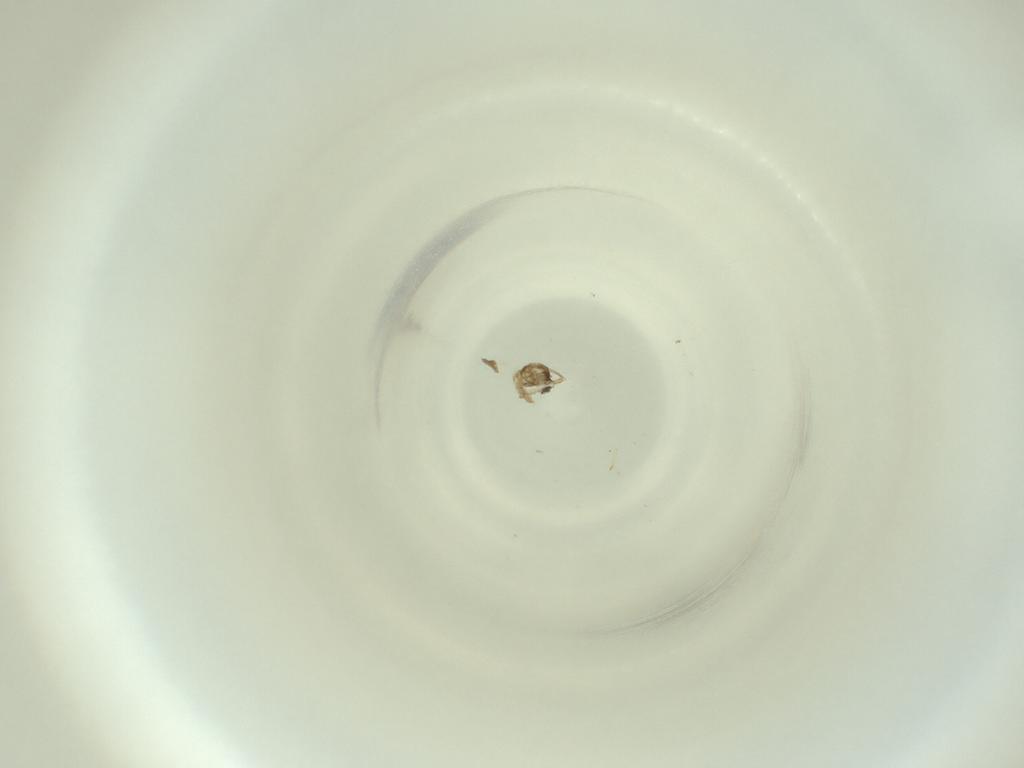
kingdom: Animalia
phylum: Arthropoda
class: Insecta
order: Diptera
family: Cecidomyiidae
